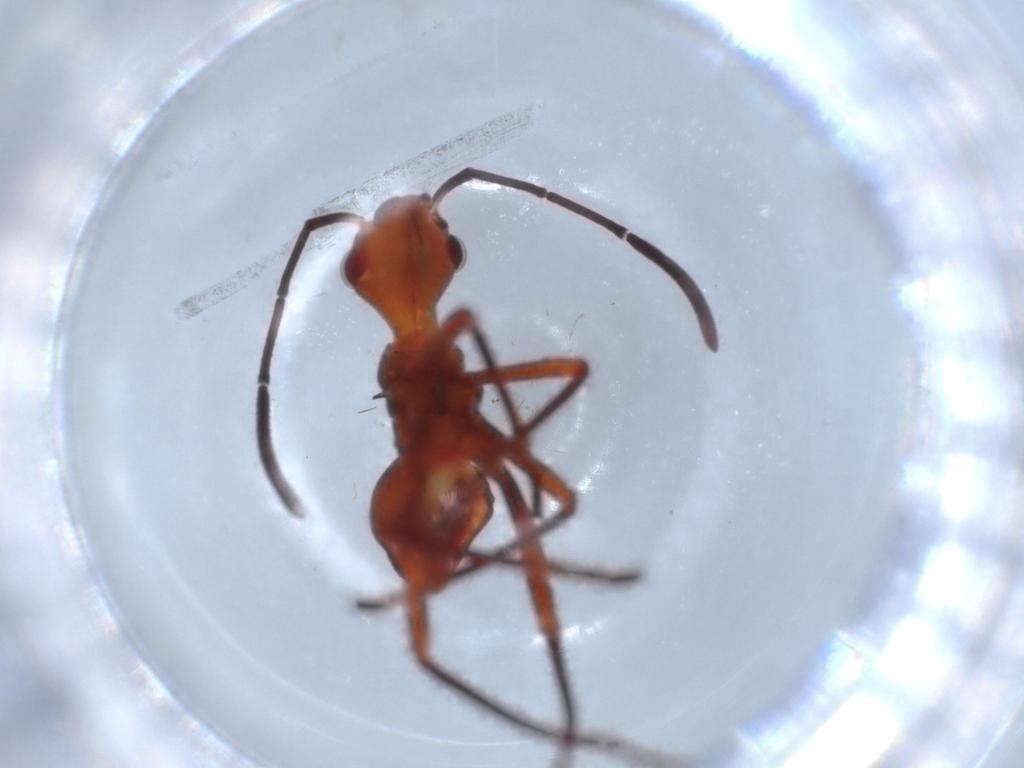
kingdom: Animalia
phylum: Arthropoda
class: Insecta
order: Hemiptera
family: Alydidae
